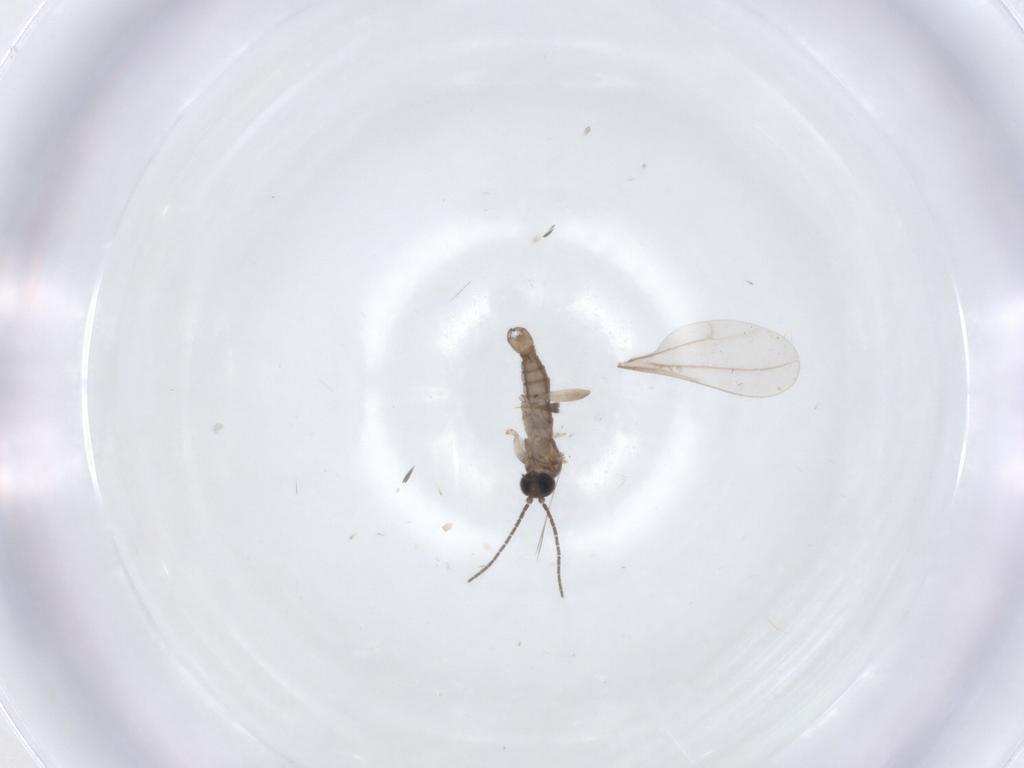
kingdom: Animalia
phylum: Arthropoda
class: Insecta
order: Diptera
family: Sciaridae
